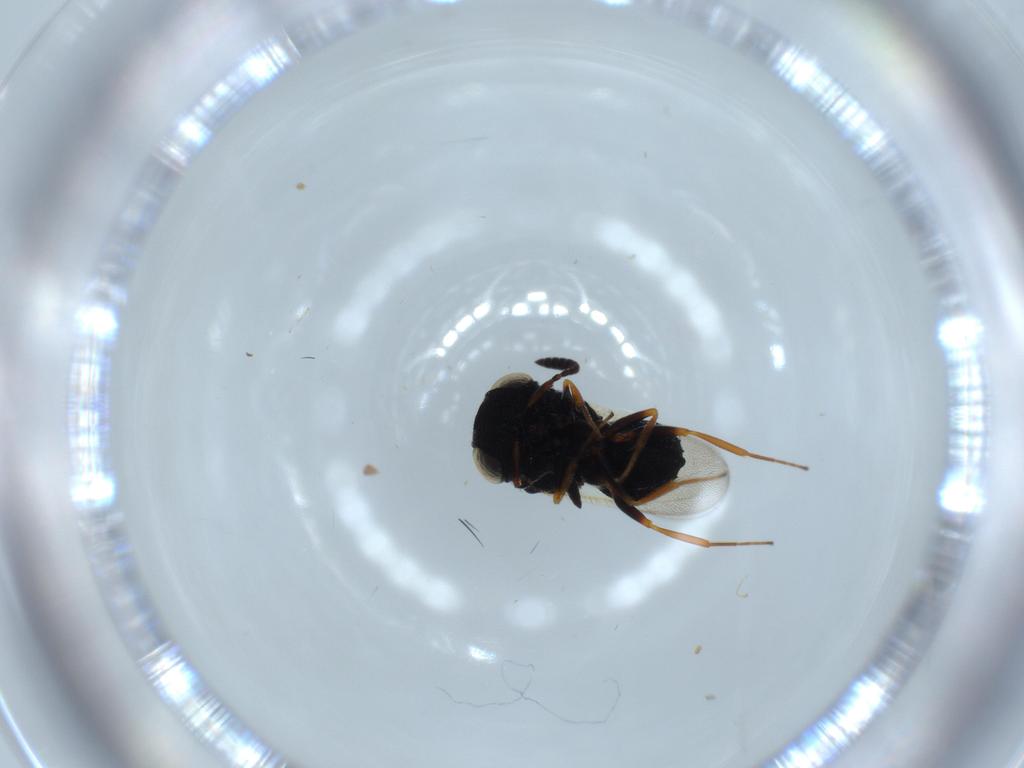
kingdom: Animalia
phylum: Arthropoda
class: Insecta
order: Hymenoptera
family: Scelionidae
